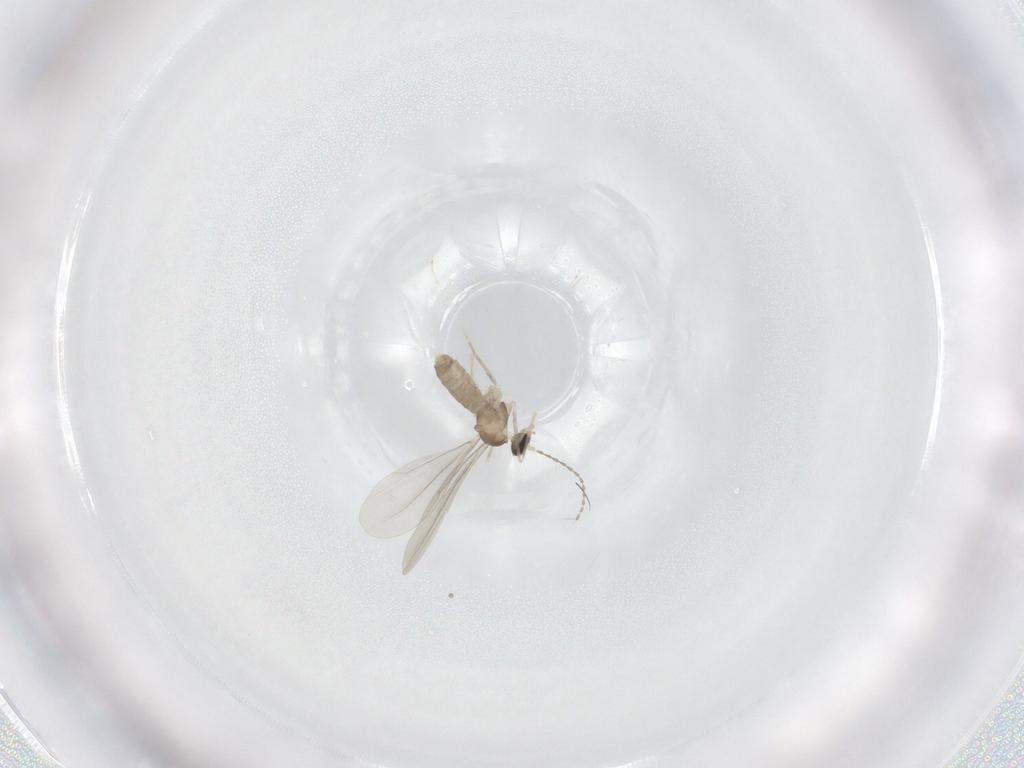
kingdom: Animalia
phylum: Arthropoda
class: Insecta
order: Diptera
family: Cecidomyiidae
